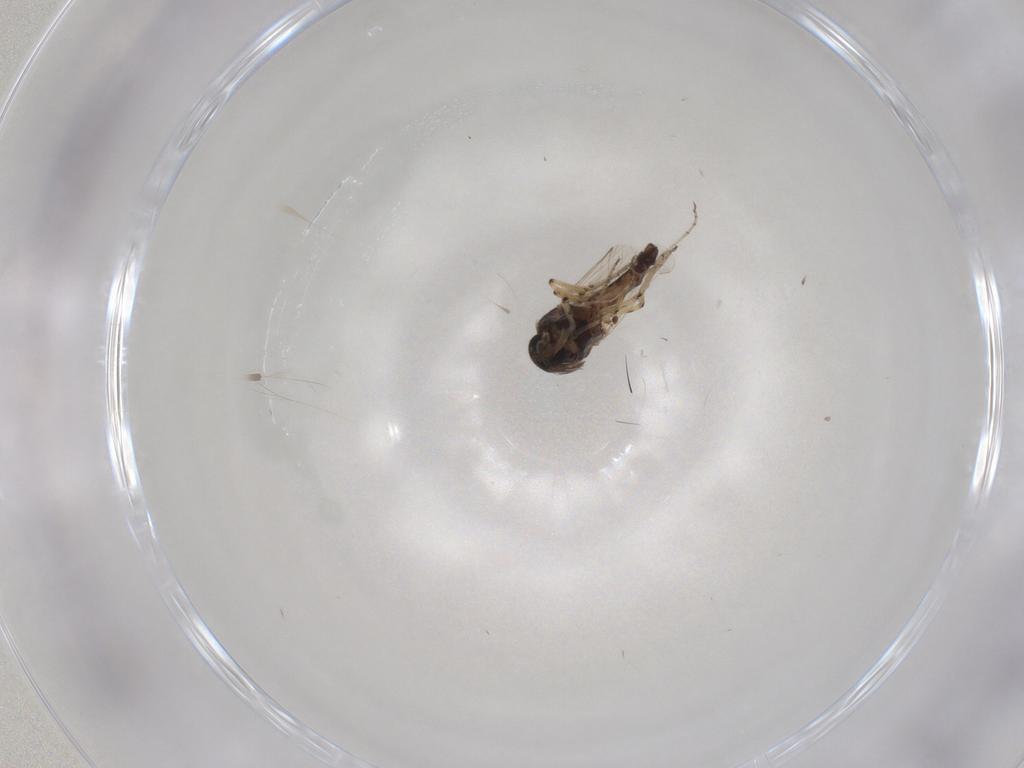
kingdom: Animalia
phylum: Arthropoda
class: Insecta
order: Diptera
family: Ceratopogonidae
